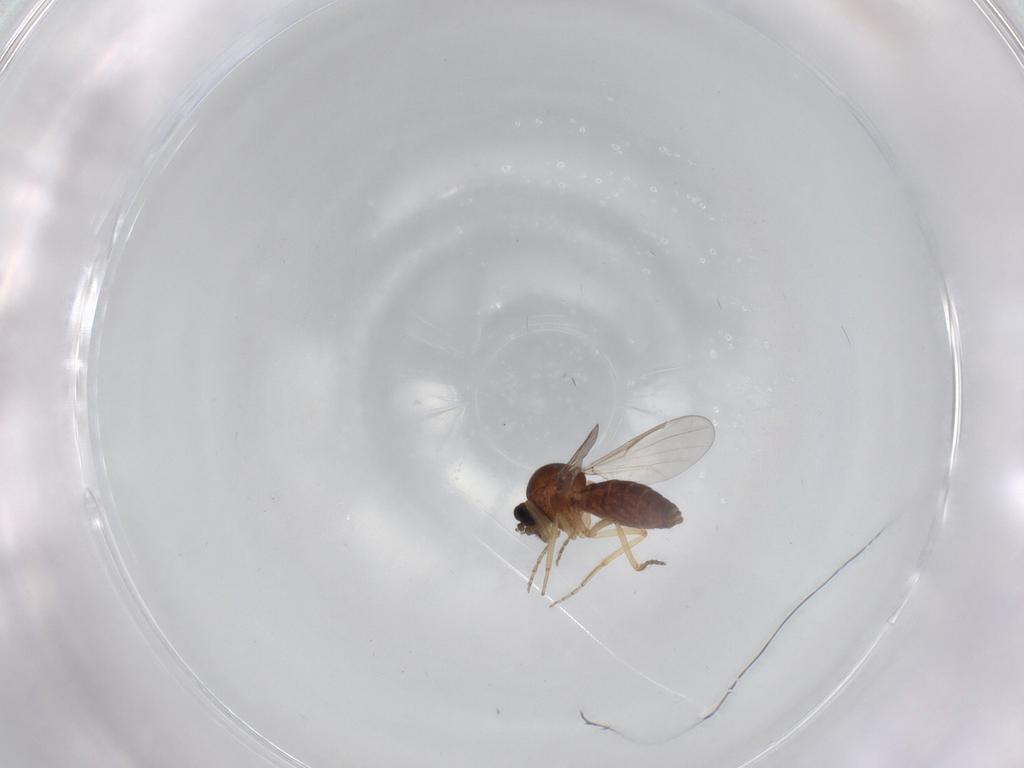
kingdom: Animalia
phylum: Arthropoda
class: Insecta
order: Diptera
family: Ceratopogonidae
